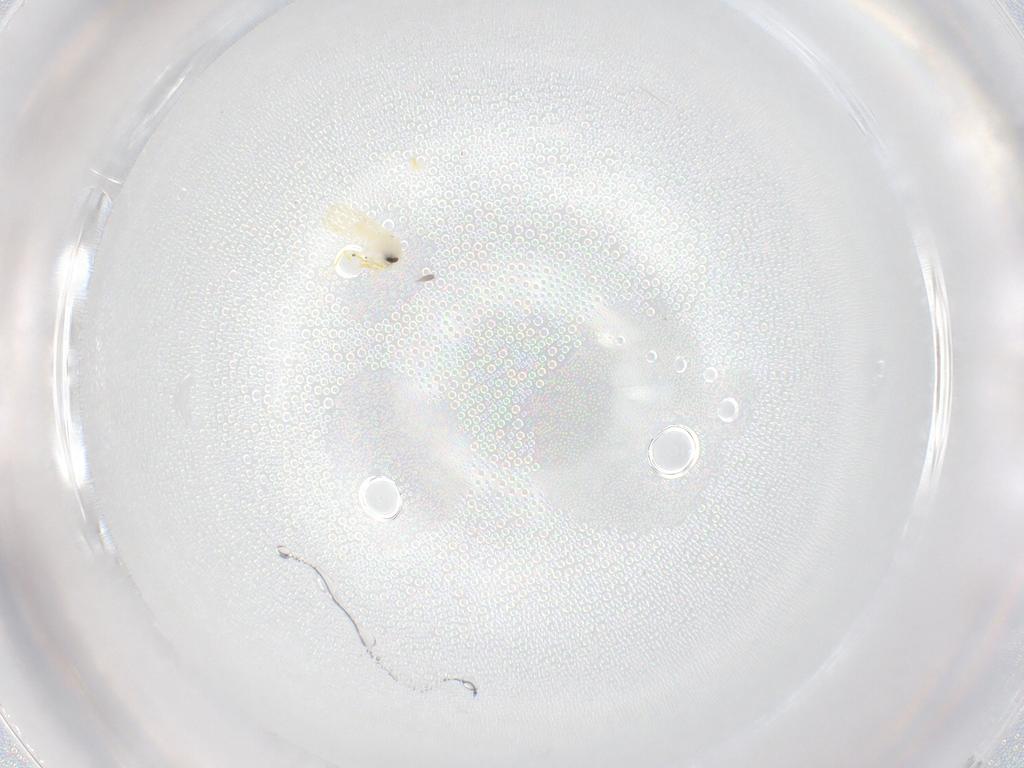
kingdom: Animalia
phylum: Arthropoda
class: Insecta
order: Hemiptera
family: Aleyrodidae
